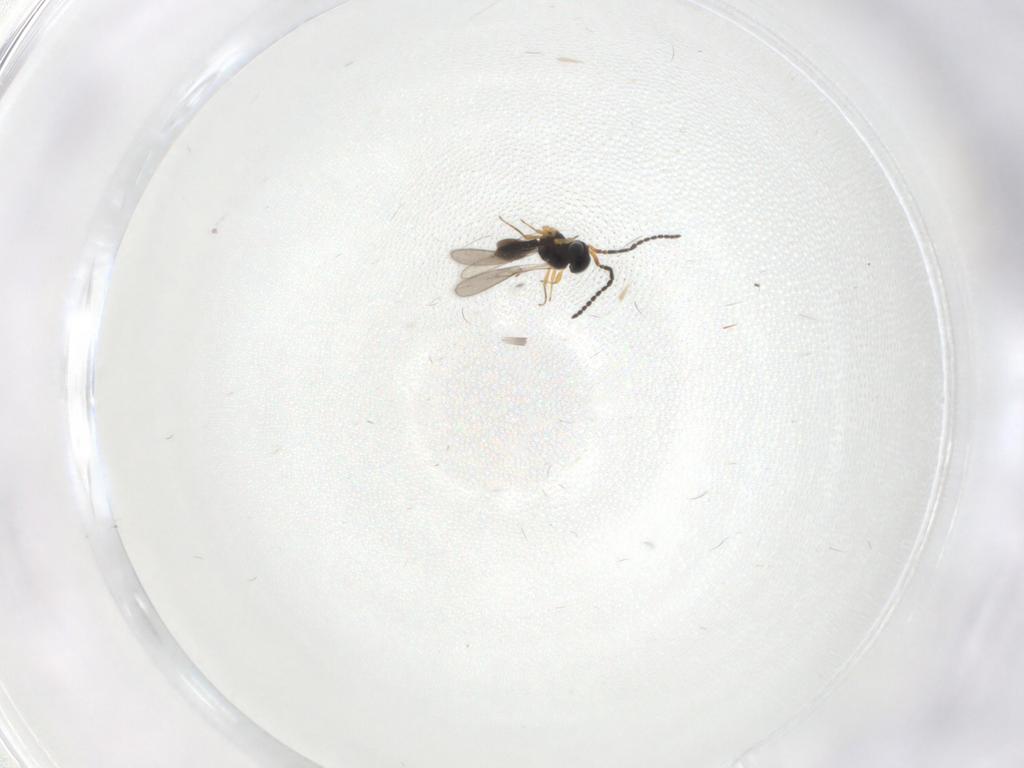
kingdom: Animalia
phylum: Arthropoda
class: Insecta
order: Hymenoptera
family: Scelionidae
